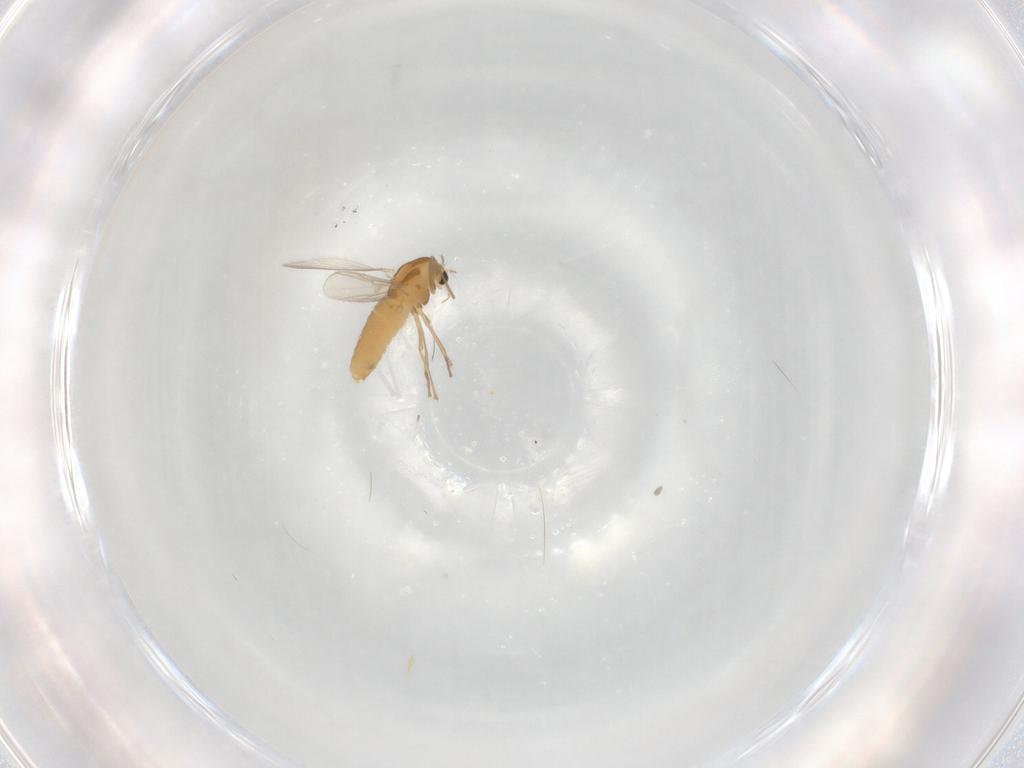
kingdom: Animalia
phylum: Arthropoda
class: Insecta
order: Diptera
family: Chironomidae
